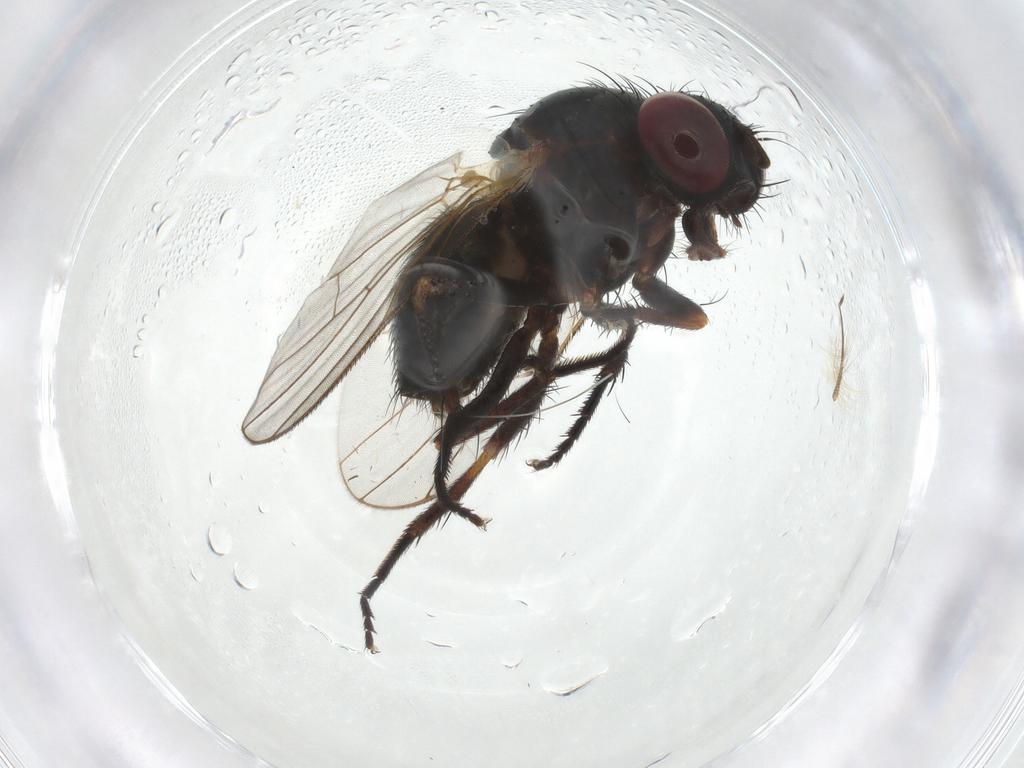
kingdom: Animalia
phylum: Arthropoda
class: Insecta
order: Diptera
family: Fannia
